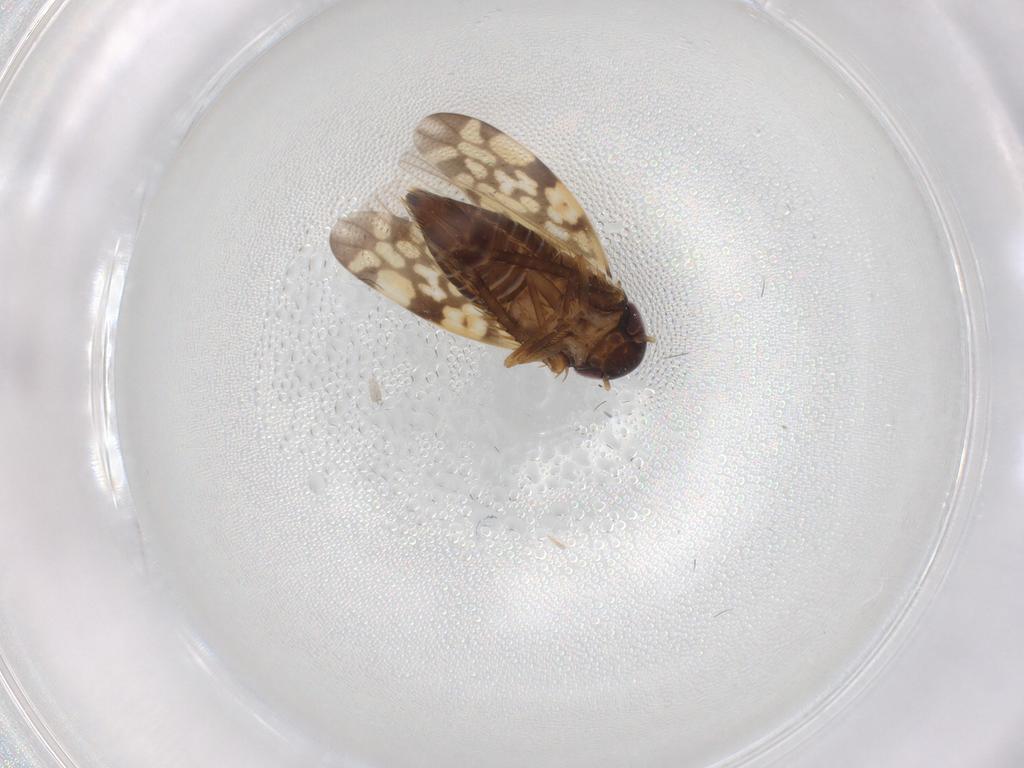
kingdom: Animalia
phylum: Arthropoda
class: Insecta
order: Hemiptera
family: Cicadellidae
